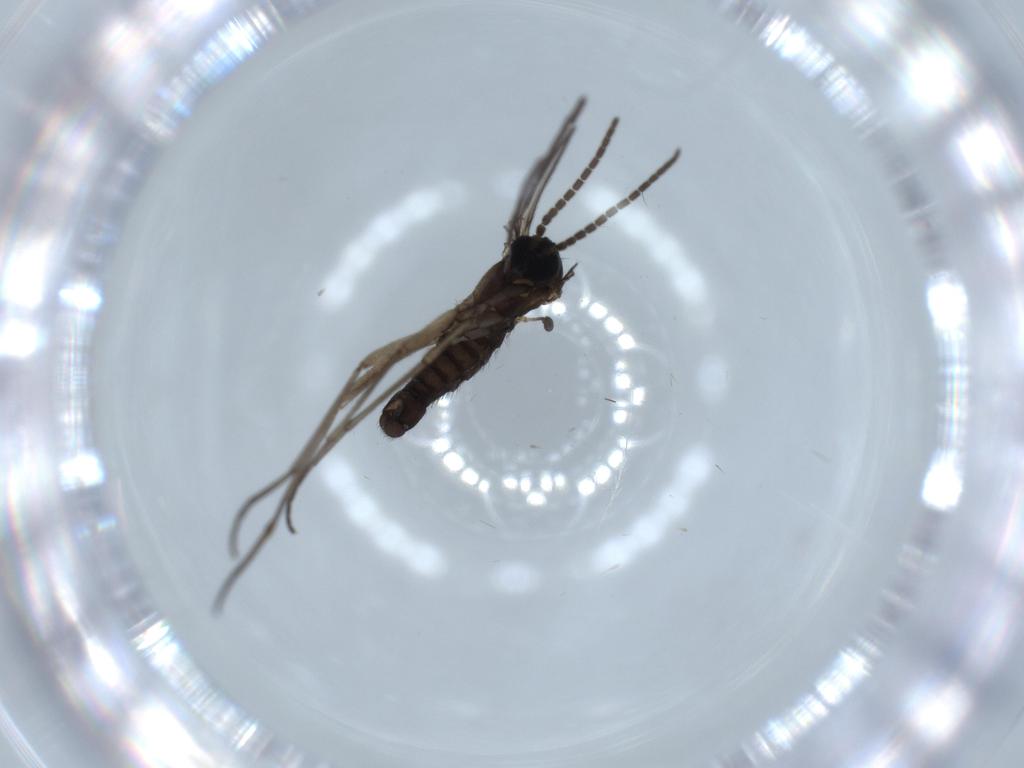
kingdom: Animalia
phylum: Arthropoda
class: Insecta
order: Diptera
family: Sciaridae
